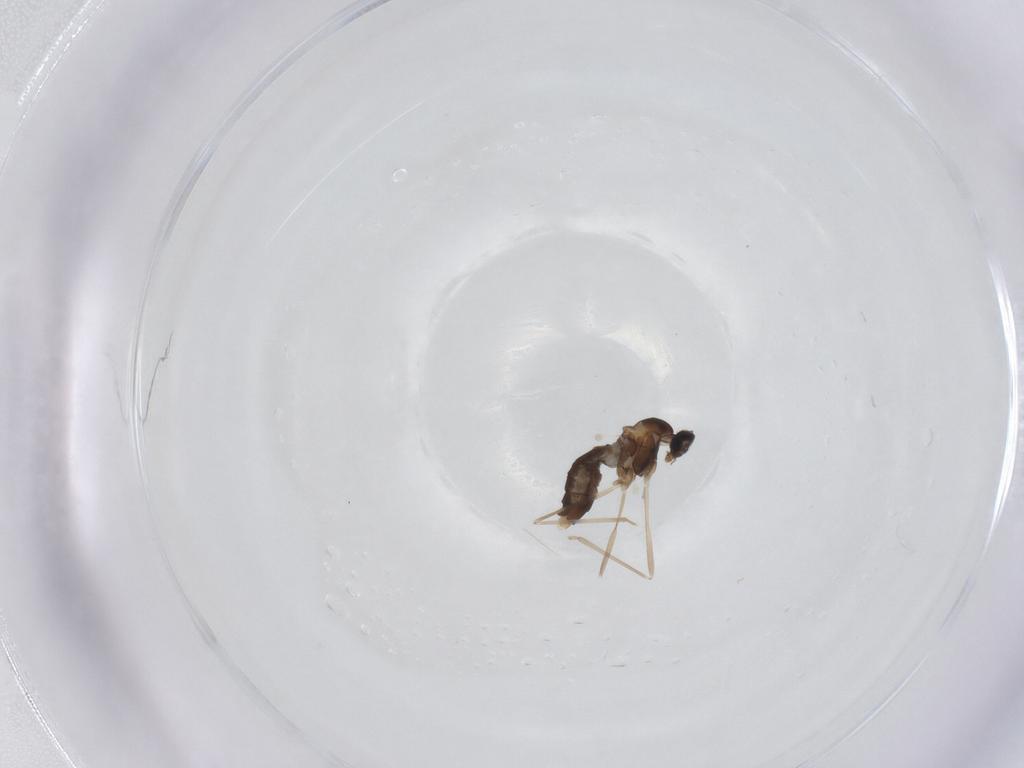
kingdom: Animalia
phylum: Arthropoda
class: Insecta
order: Diptera
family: Cecidomyiidae
